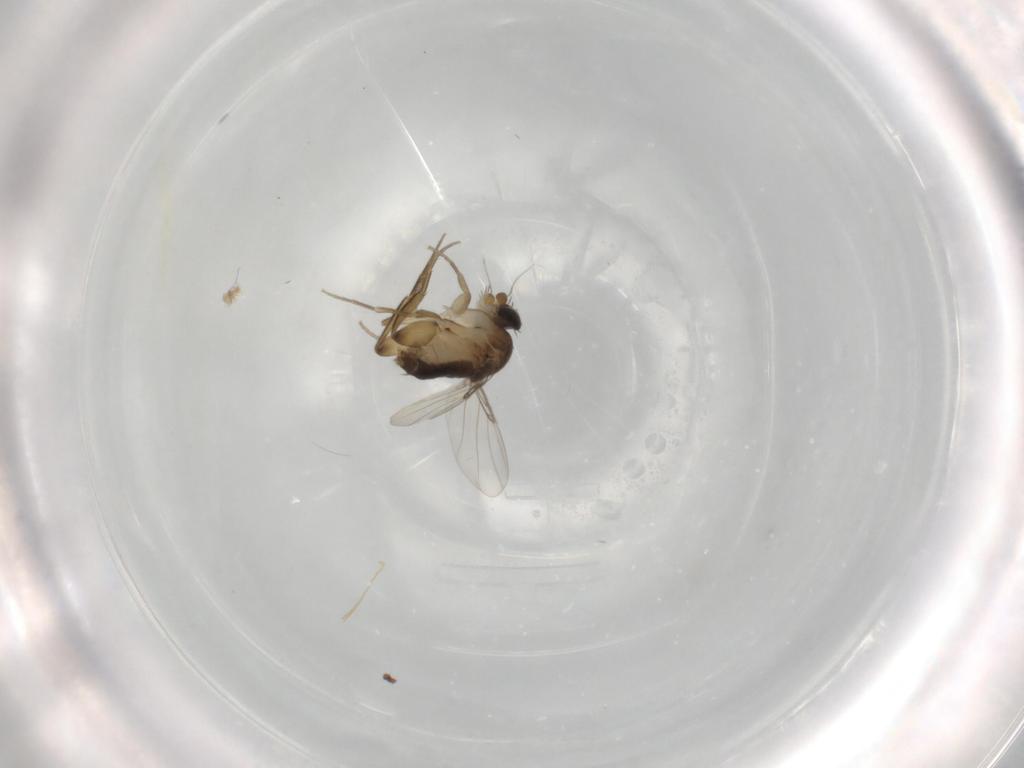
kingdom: Animalia
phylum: Arthropoda
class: Insecta
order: Diptera
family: Phoridae
